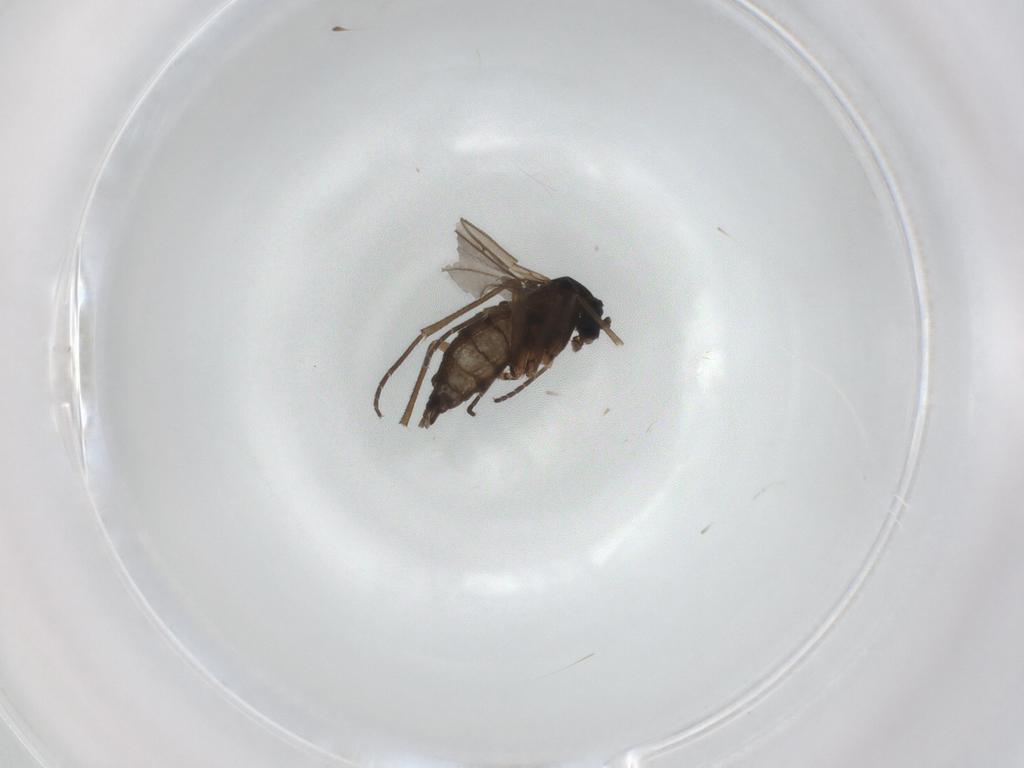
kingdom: Animalia
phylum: Arthropoda
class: Insecta
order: Diptera
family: Sciaridae
